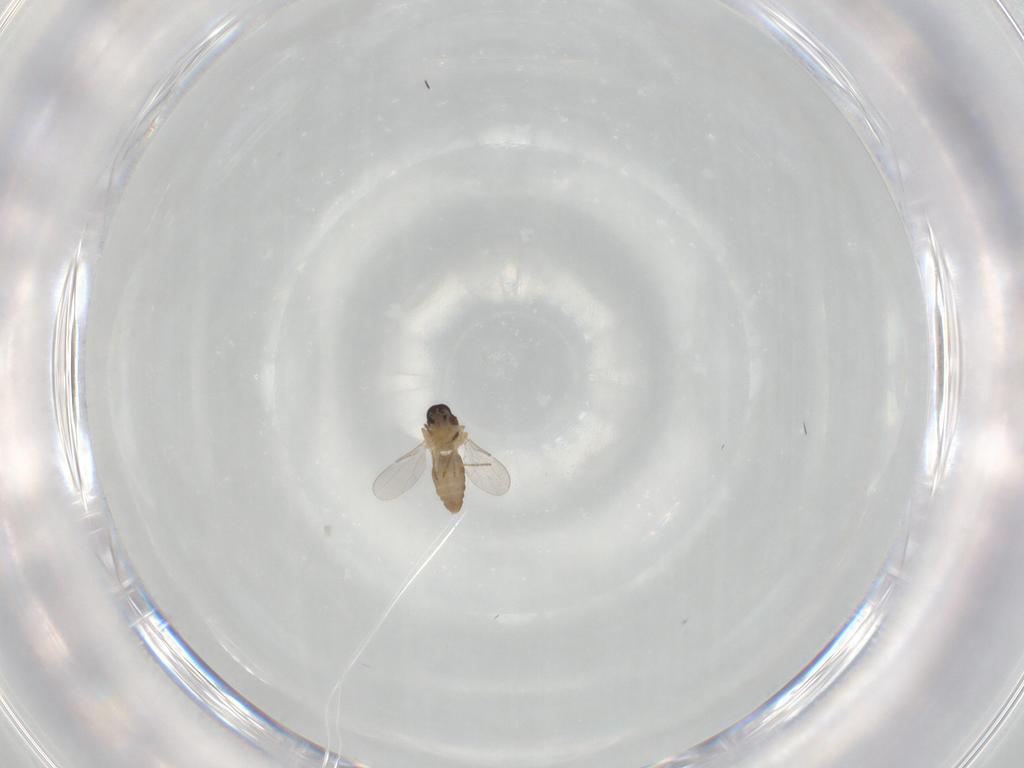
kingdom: Animalia
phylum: Arthropoda
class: Insecta
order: Diptera
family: Ceratopogonidae
